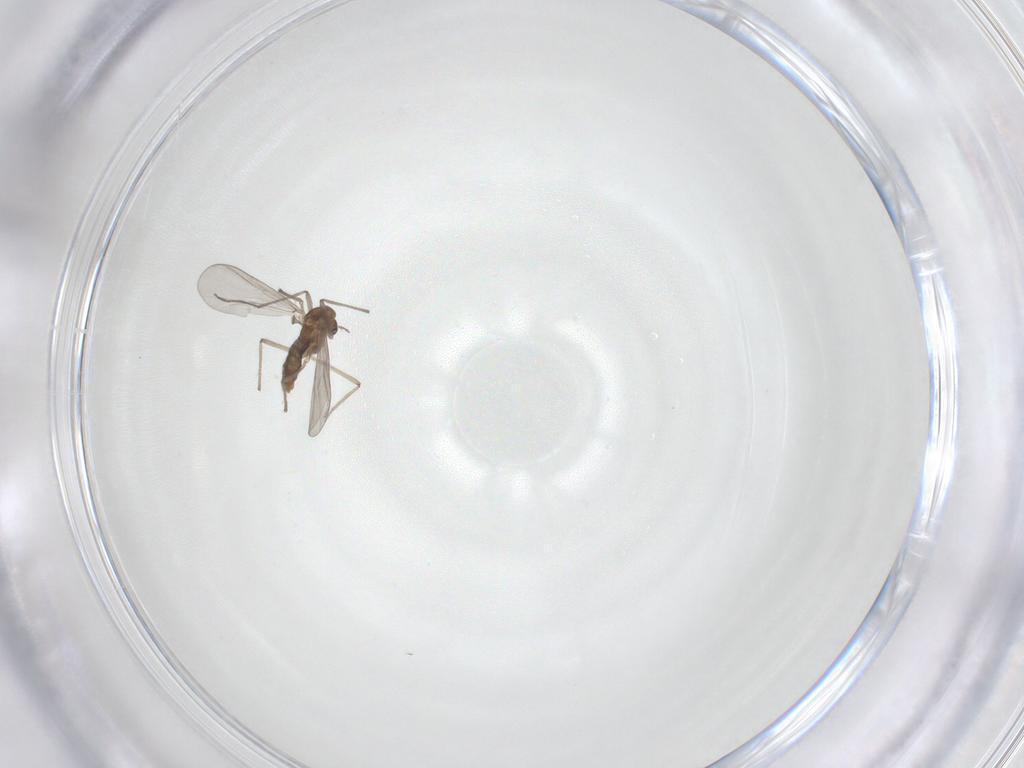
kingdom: Animalia
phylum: Arthropoda
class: Insecta
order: Diptera
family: Chironomidae
